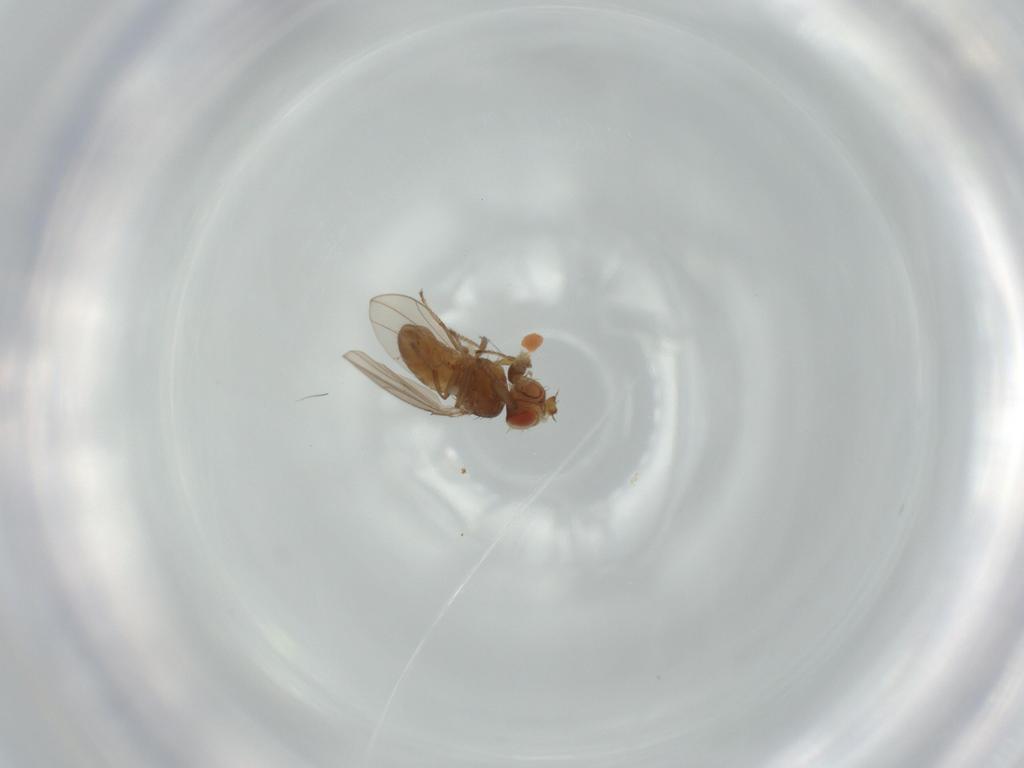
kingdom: Animalia
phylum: Arthropoda
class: Insecta
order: Diptera
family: Ephydridae
